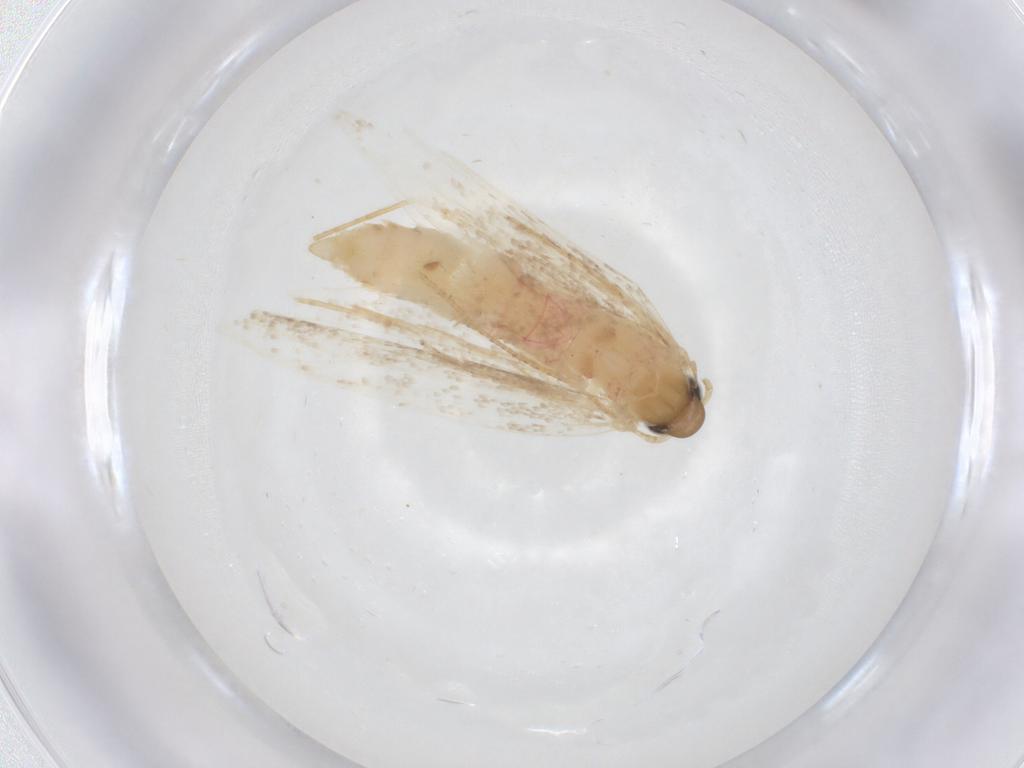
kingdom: Animalia
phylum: Arthropoda
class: Insecta
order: Lepidoptera
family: Gelechiidae
